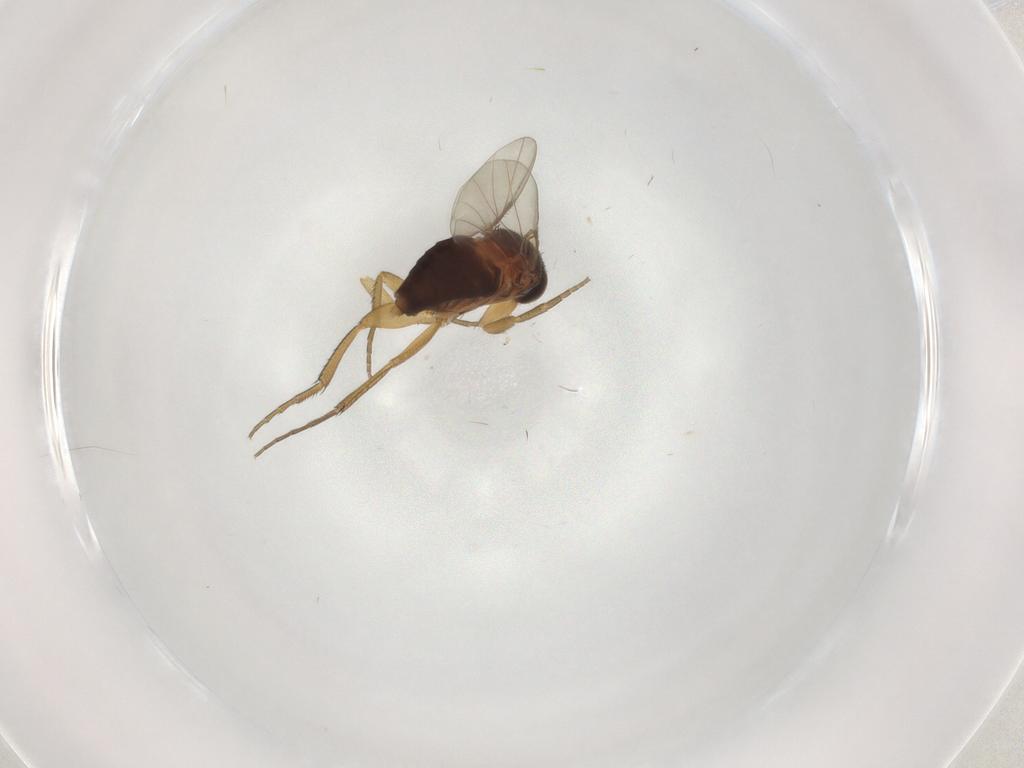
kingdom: Animalia
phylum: Arthropoda
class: Insecta
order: Diptera
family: Phoridae
